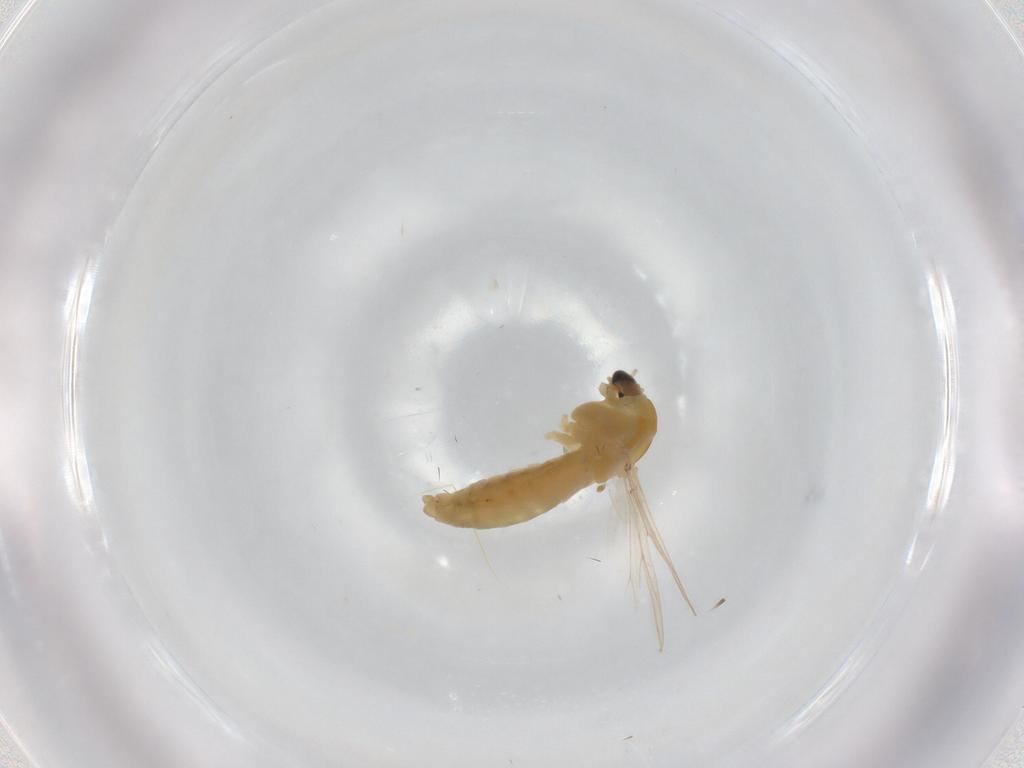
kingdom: Animalia
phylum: Arthropoda
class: Insecta
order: Diptera
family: Chironomidae
